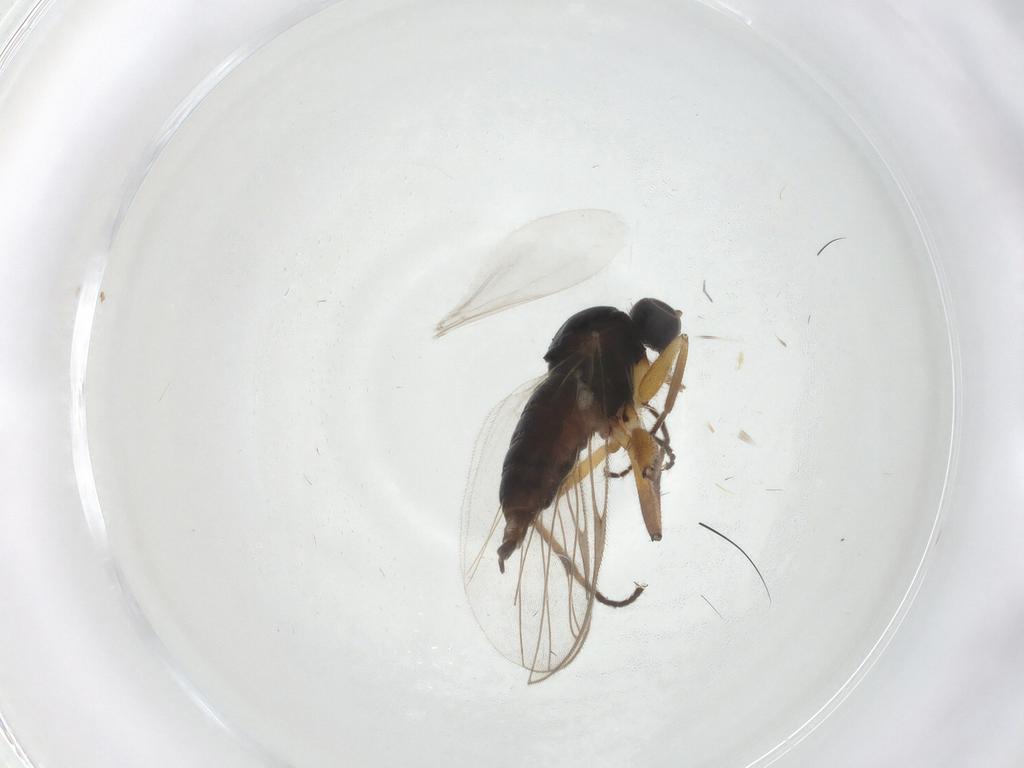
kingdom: Animalia
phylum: Arthropoda
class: Insecta
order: Diptera
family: Hybotidae
